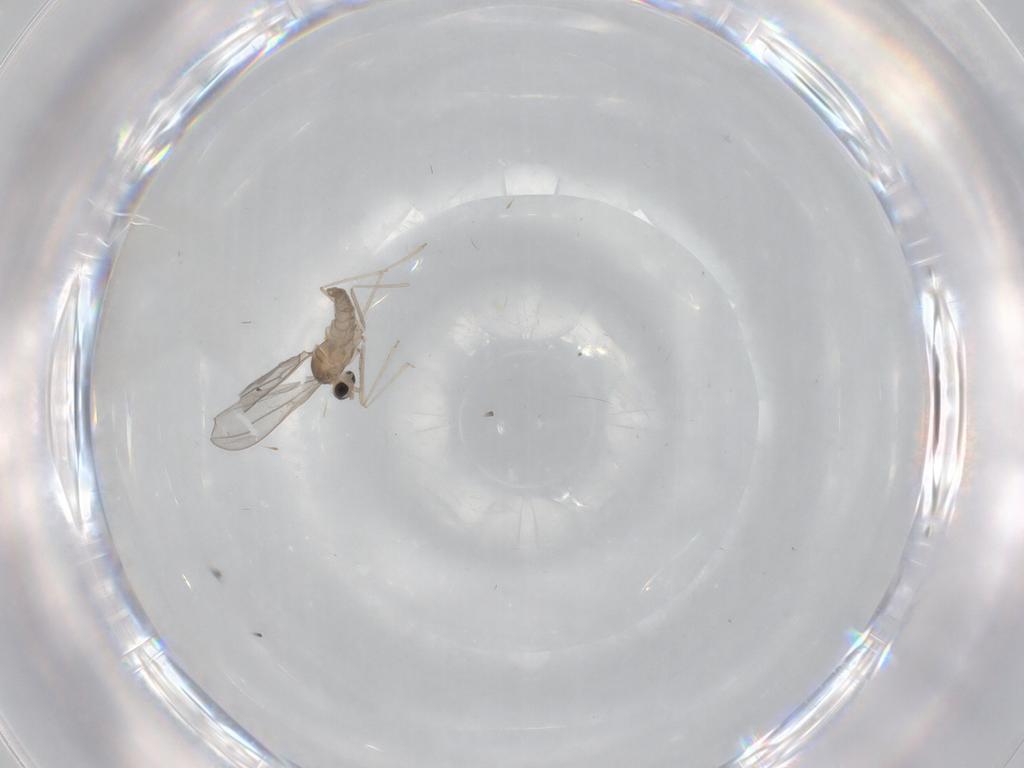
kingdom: Animalia
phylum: Arthropoda
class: Insecta
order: Diptera
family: Cecidomyiidae
